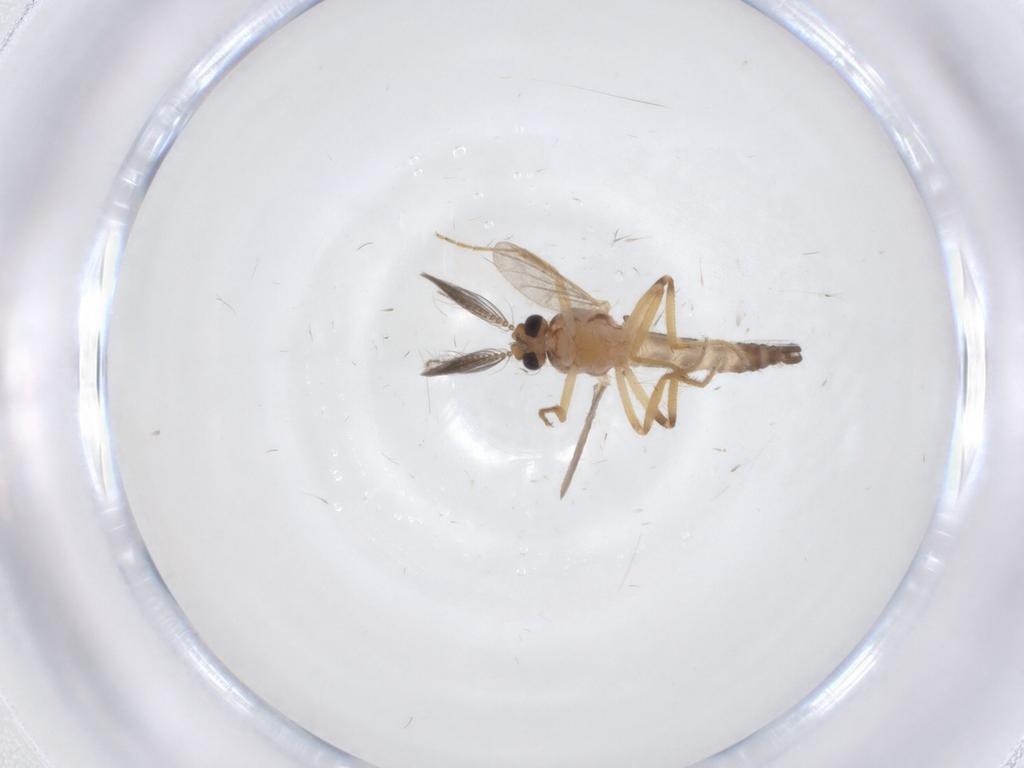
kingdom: Animalia
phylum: Arthropoda
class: Insecta
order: Diptera
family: Ceratopogonidae
